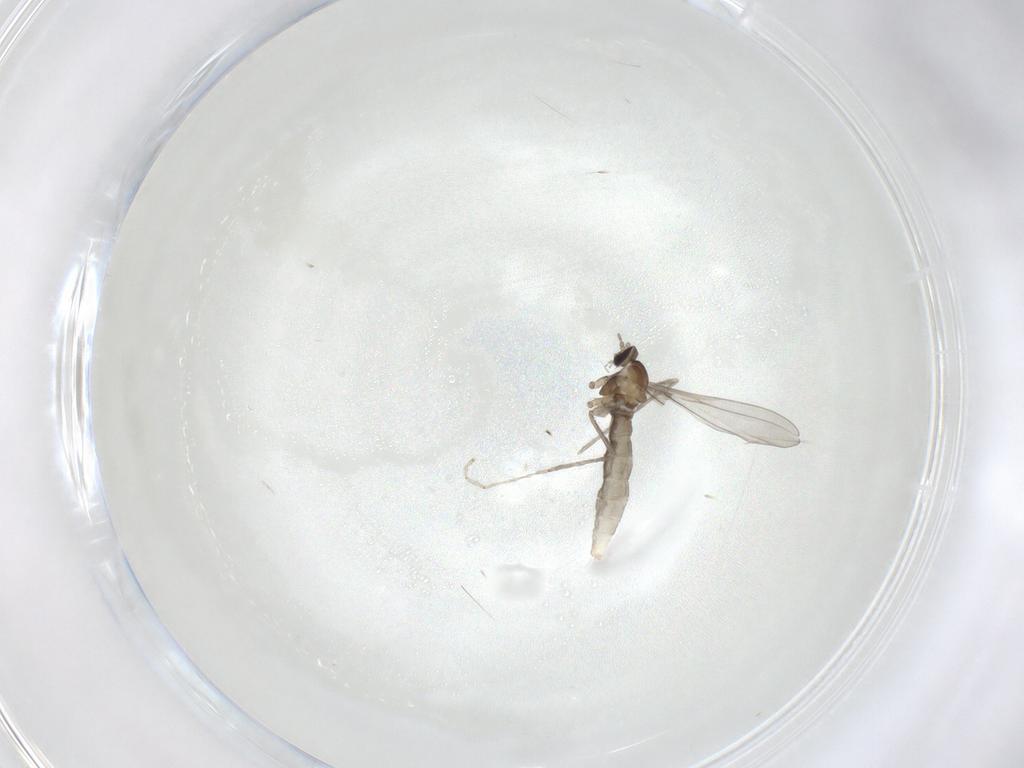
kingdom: Animalia
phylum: Arthropoda
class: Insecta
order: Diptera
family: Cecidomyiidae
